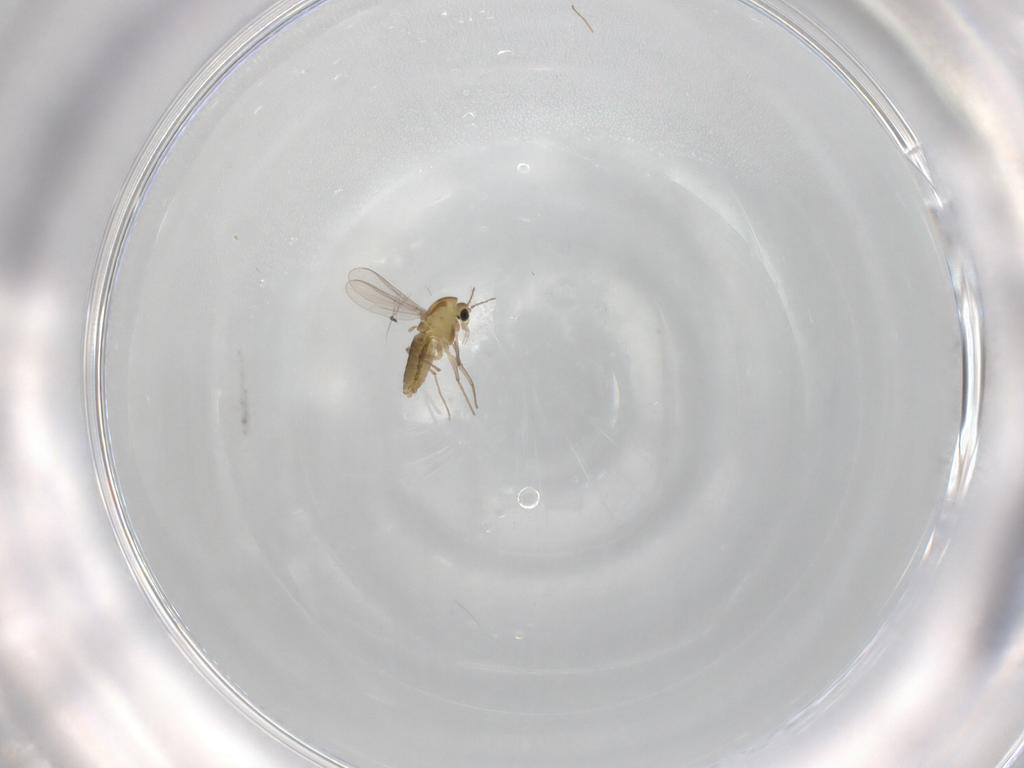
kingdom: Animalia
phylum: Arthropoda
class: Insecta
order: Diptera
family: Chironomidae
